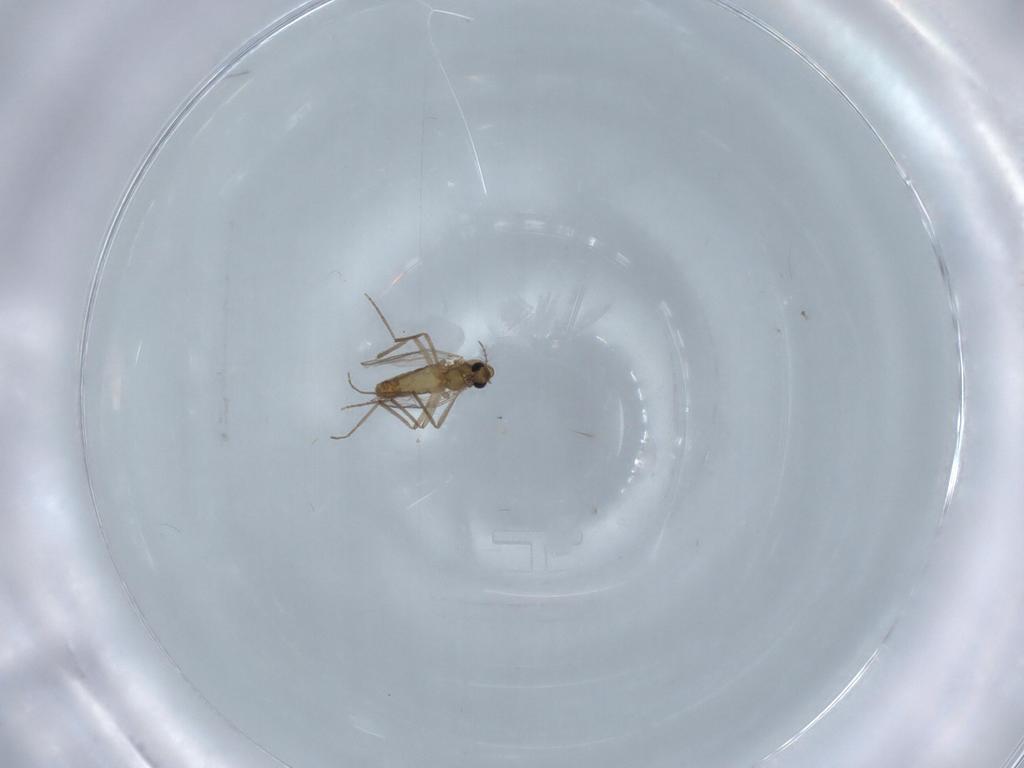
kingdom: Animalia
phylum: Arthropoda
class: Insecta
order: Diptera
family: Chironomidae
